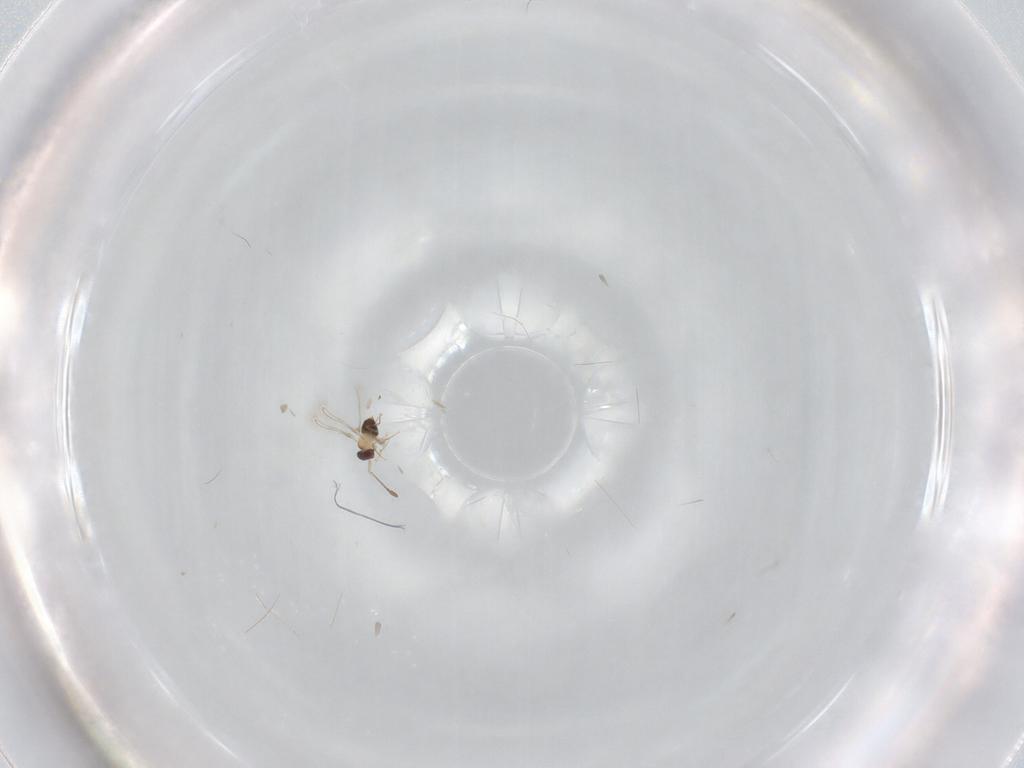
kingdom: Animalia
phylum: Arthropoda
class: Insecta
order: Hymenoptera
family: Mymaridae
